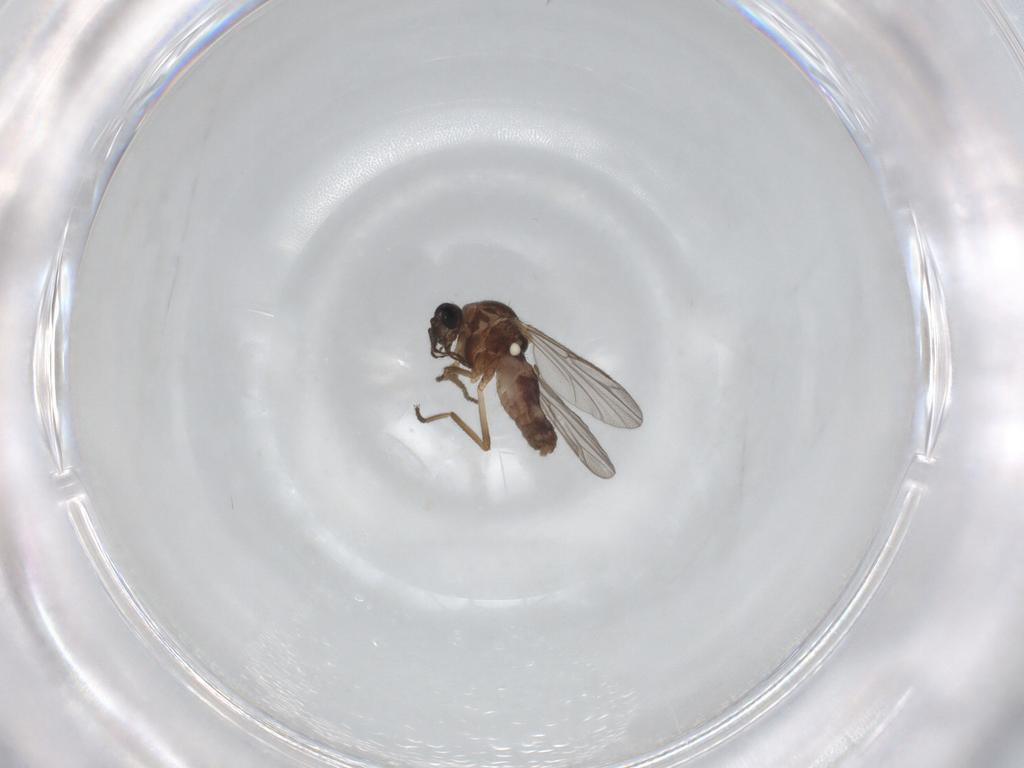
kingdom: Animalia
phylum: Arthropoda
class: Insecta
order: Diptera
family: Ceratopogonidae
